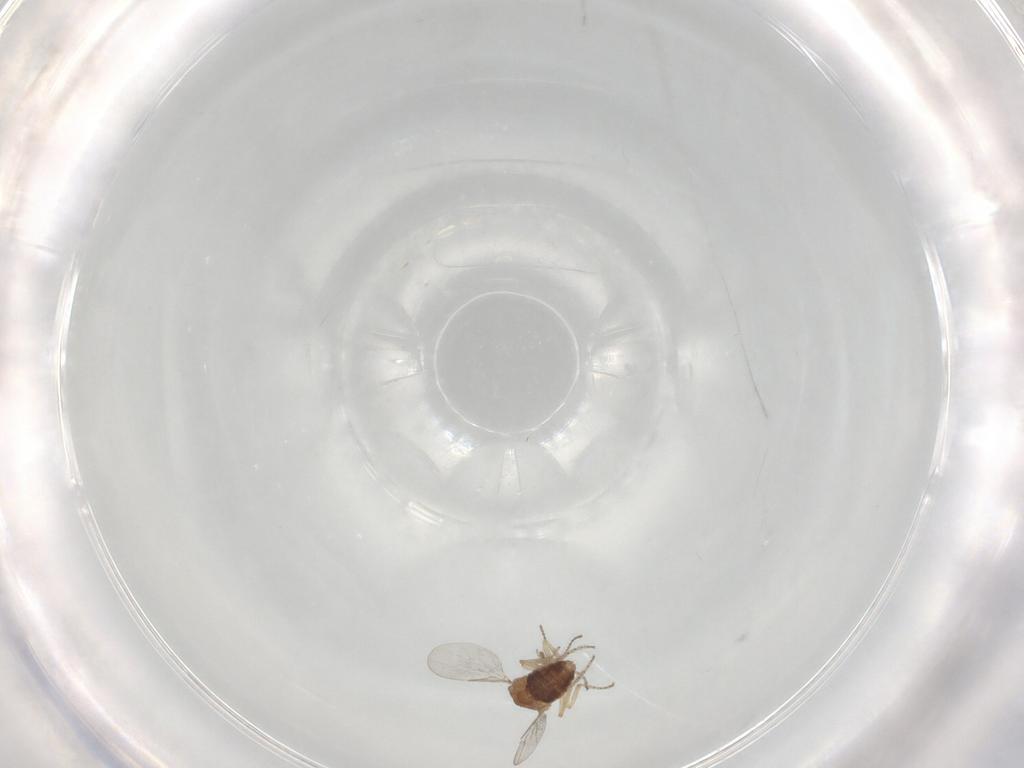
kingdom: Animalia
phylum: Arthropoda
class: Insecta
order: Diptera
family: Ceratopogonidae
